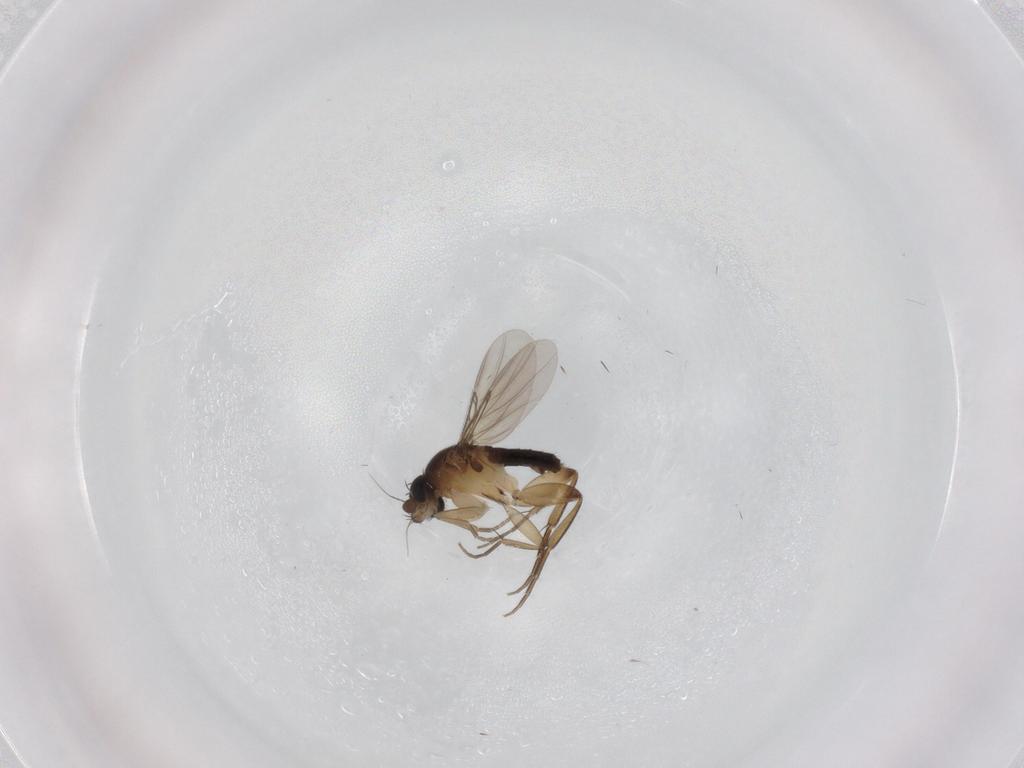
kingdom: Animalia
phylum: Arthropoda
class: Insecta
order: Diptera
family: Phoridae
